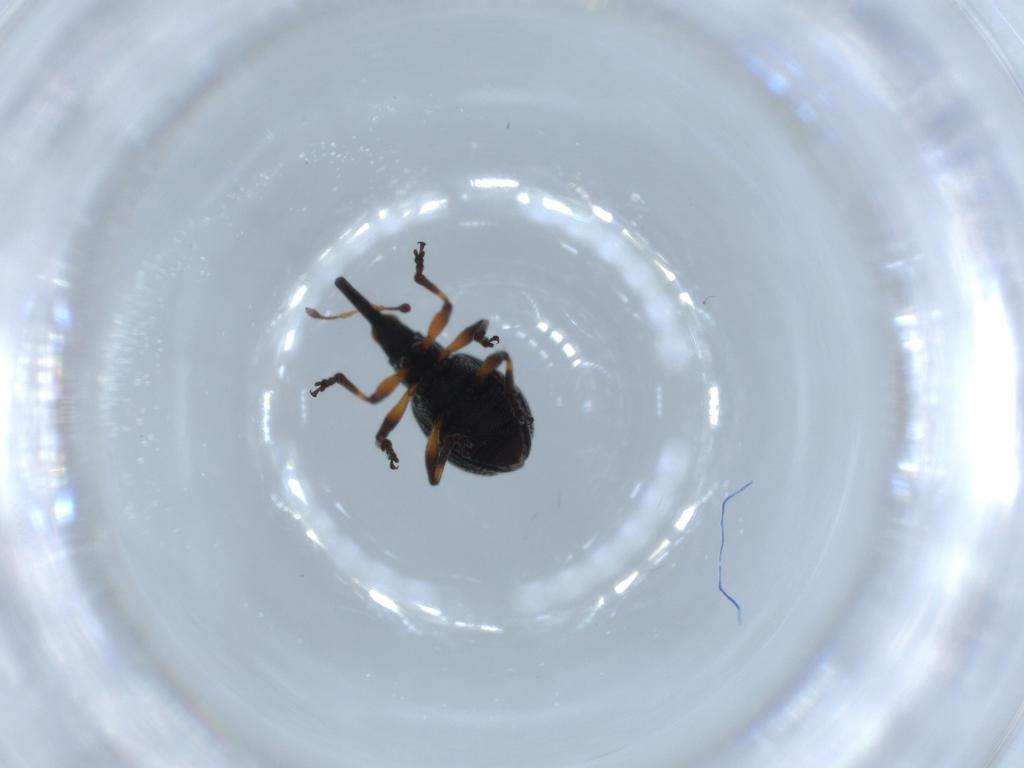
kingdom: Animalia
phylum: Arthropoda
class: Insecta
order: Coleoptera
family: Brentidae
